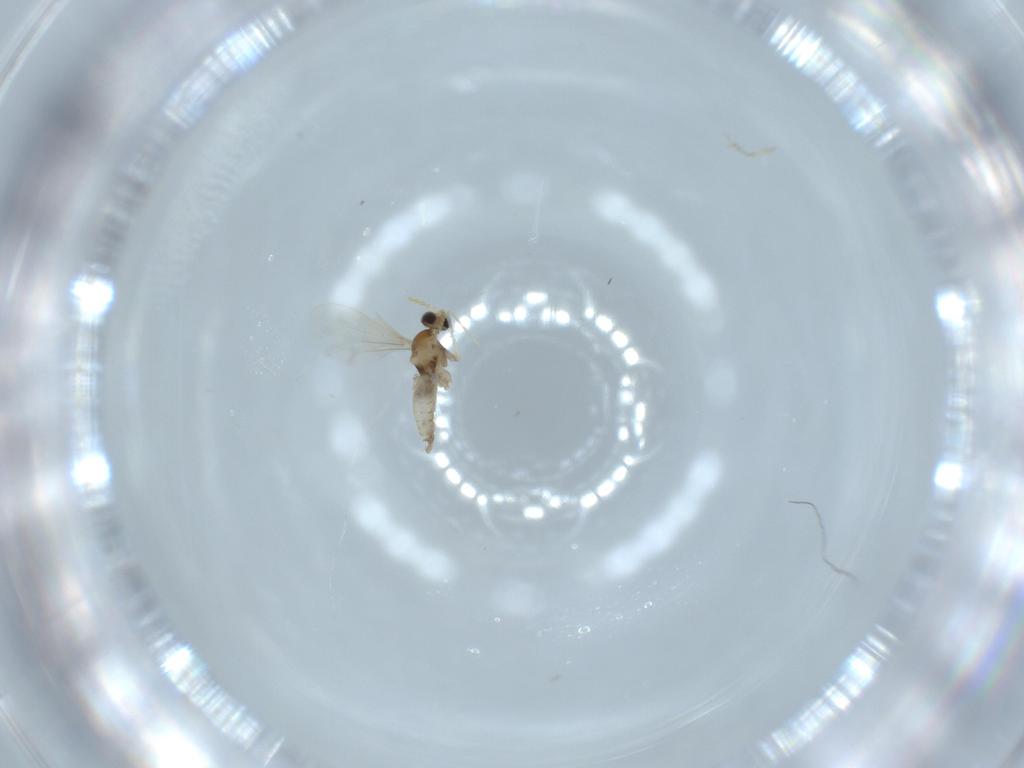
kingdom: Animalia
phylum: Arthropoda
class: Insecta
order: Diptera
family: Cecidomyiidae
